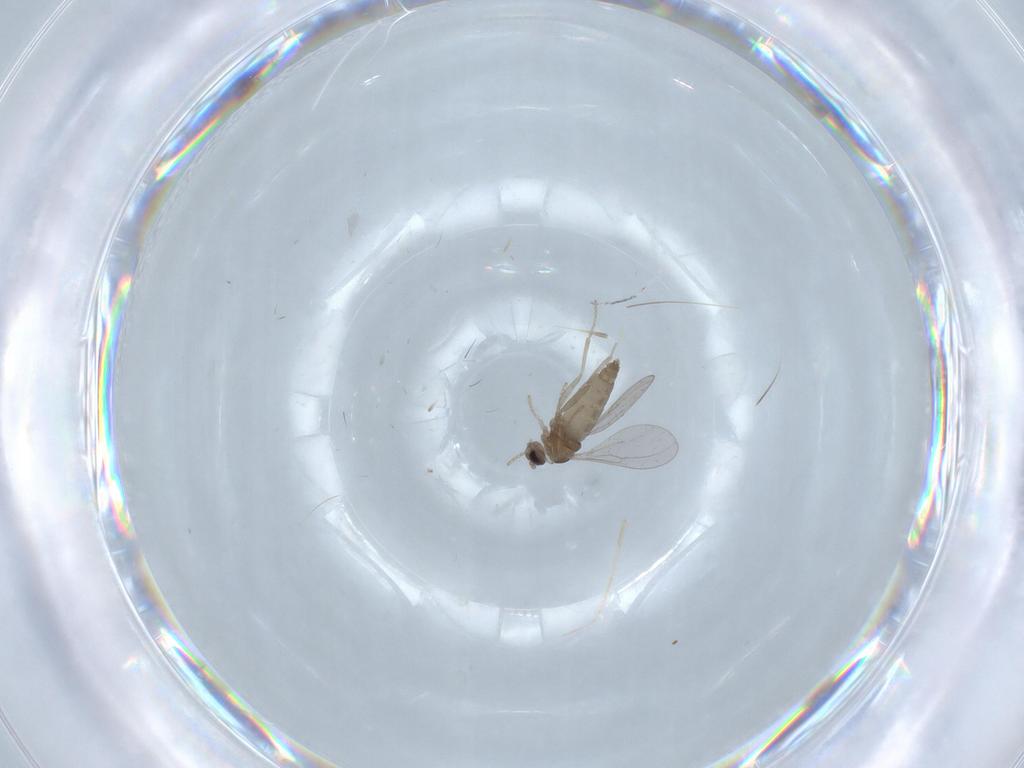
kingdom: Animalia
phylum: Arthropoda
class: Insecta
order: Diptera
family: Cecidomyiidae
